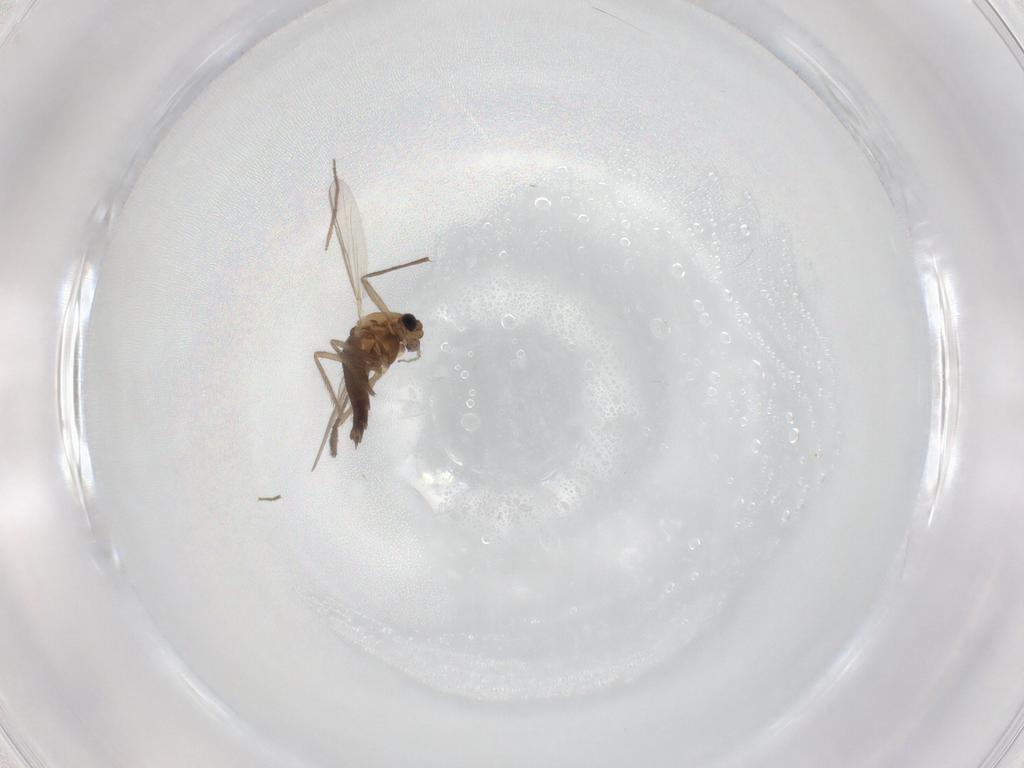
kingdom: Animalia
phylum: Arthropoda
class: Insecta
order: Diptera
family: Chironomidae
